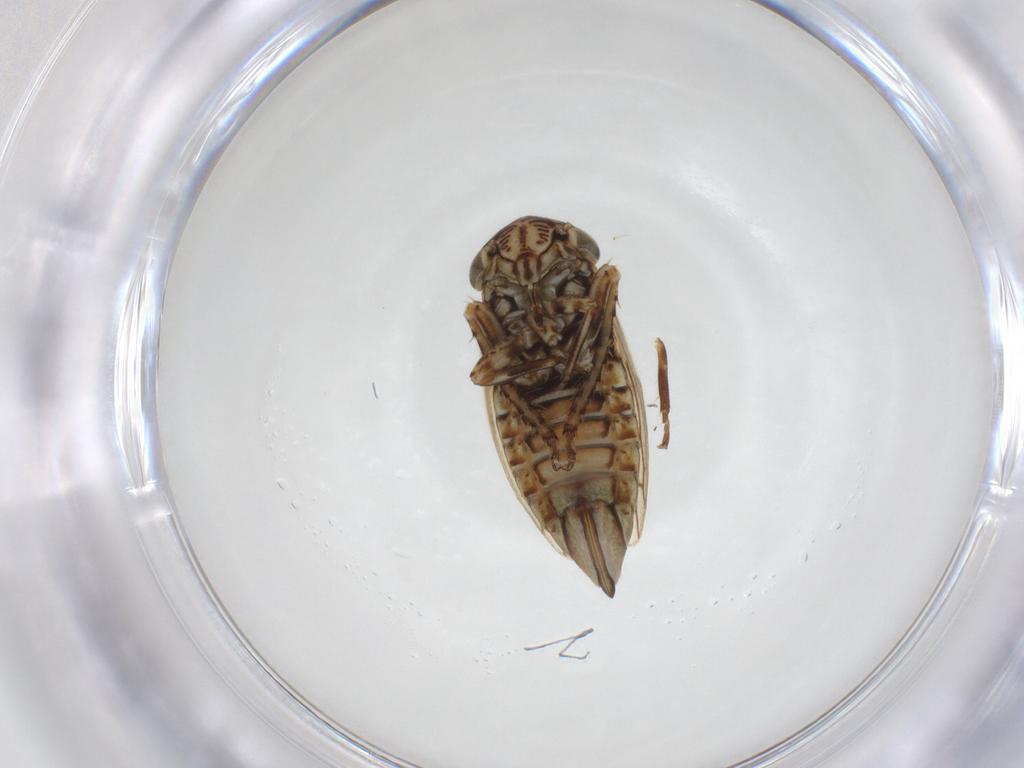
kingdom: Animalia
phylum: Arthropoda
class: Insecta
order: Hemiptera
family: Cicadellidae
